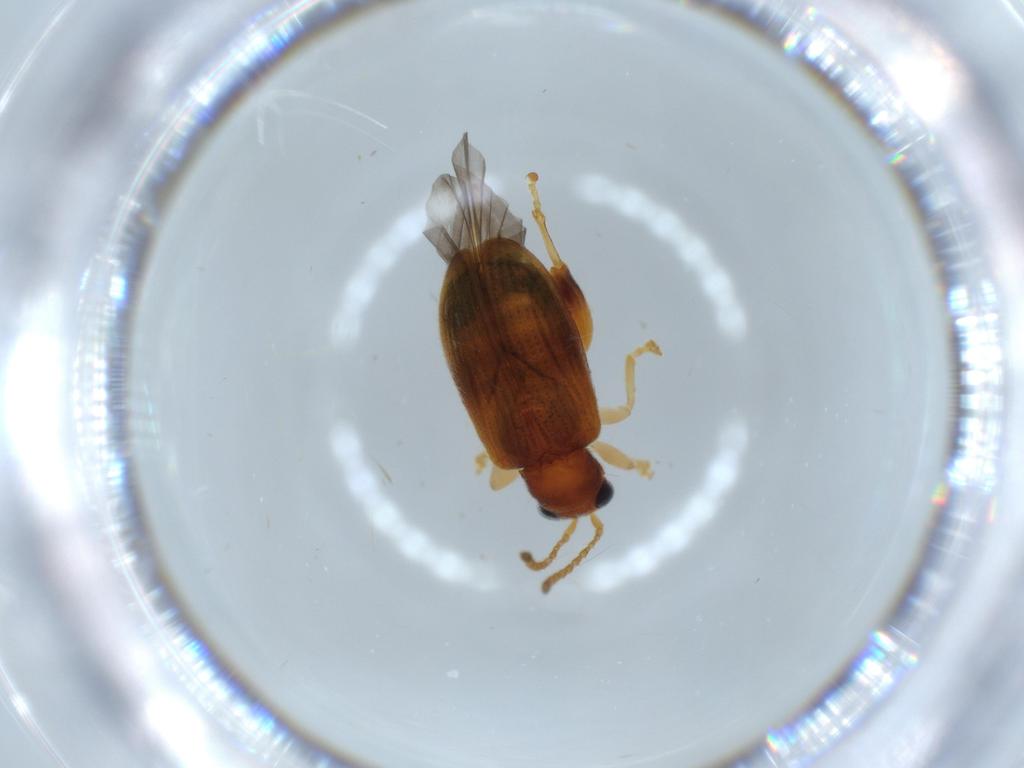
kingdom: Animalia
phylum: Arthropoda
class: Insecta
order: Coleoptera
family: Chrysomelidae
